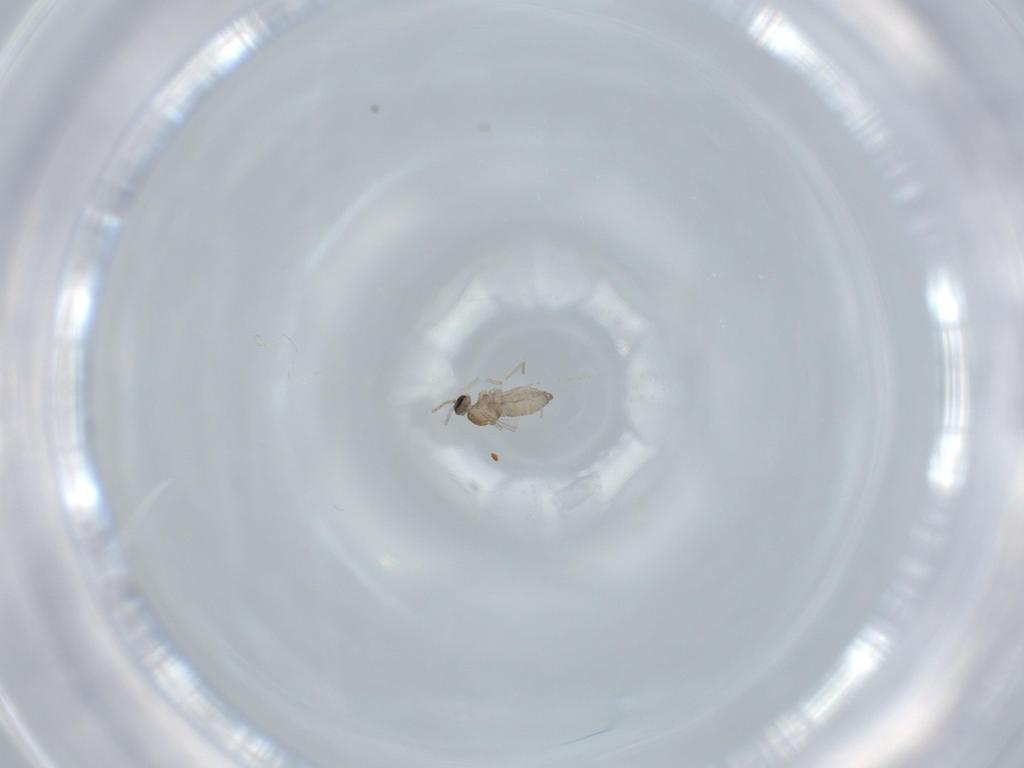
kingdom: Animalia
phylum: Arthropoda
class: Insecta
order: Diptera
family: Cecidomyiidae
